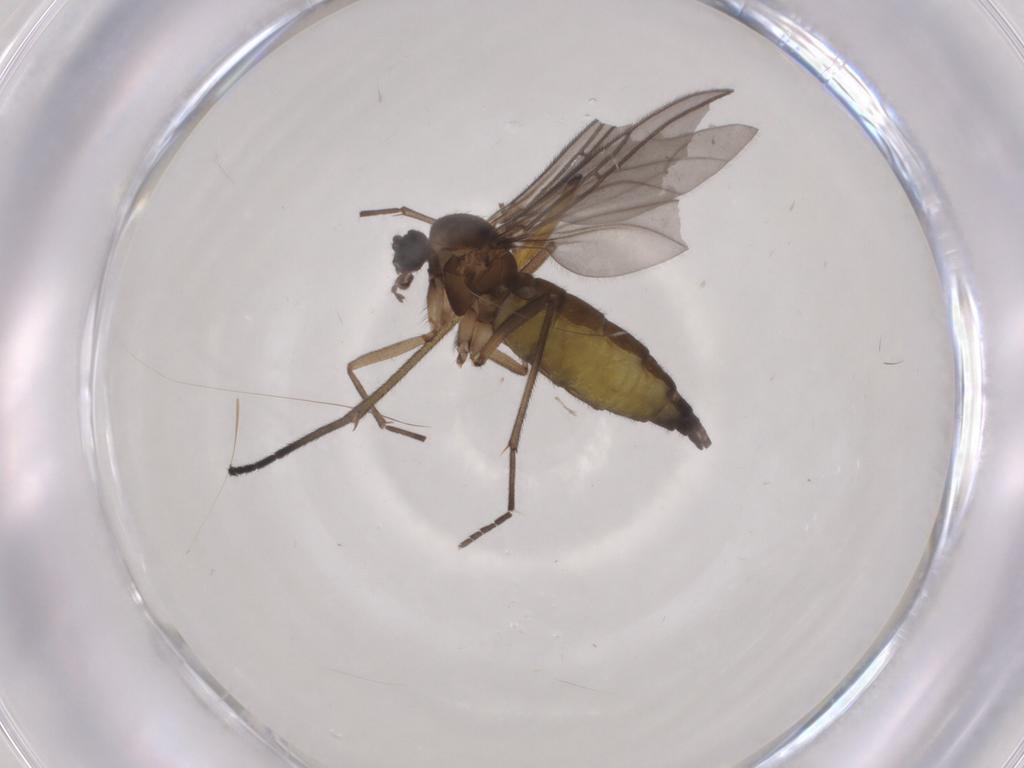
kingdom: Animalia
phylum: Arthropoda
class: Insecta
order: Diptera
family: Sciaridae
